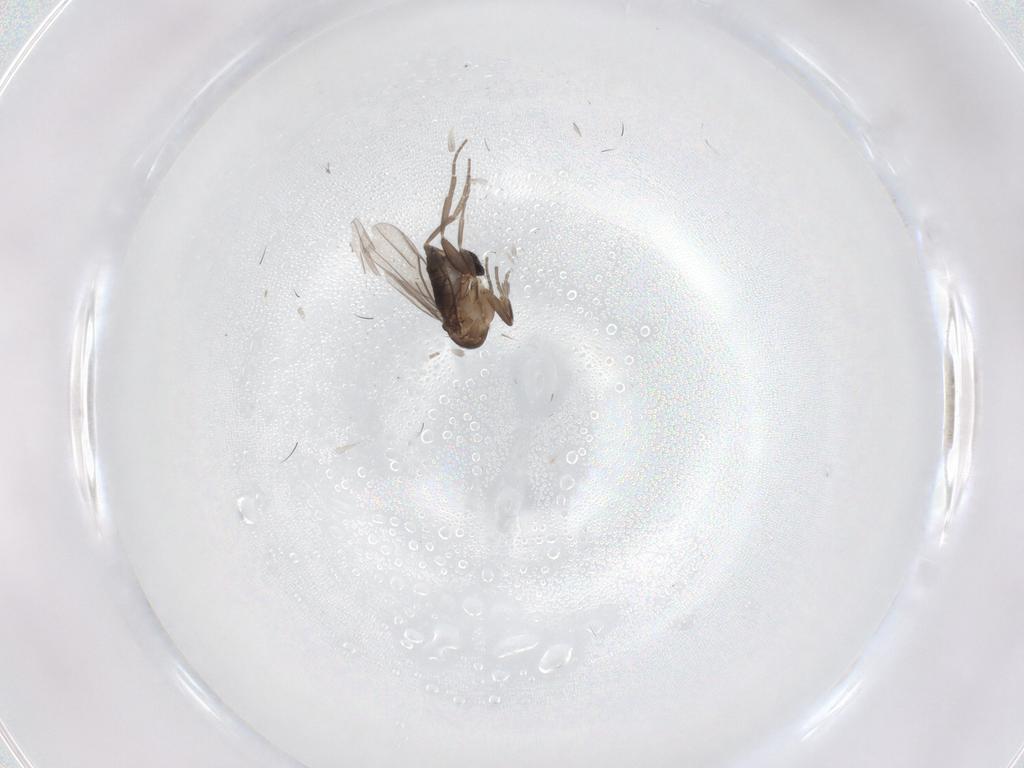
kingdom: Animalia
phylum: Arthropoda
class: Insecta
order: Diptera
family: Phoridae
